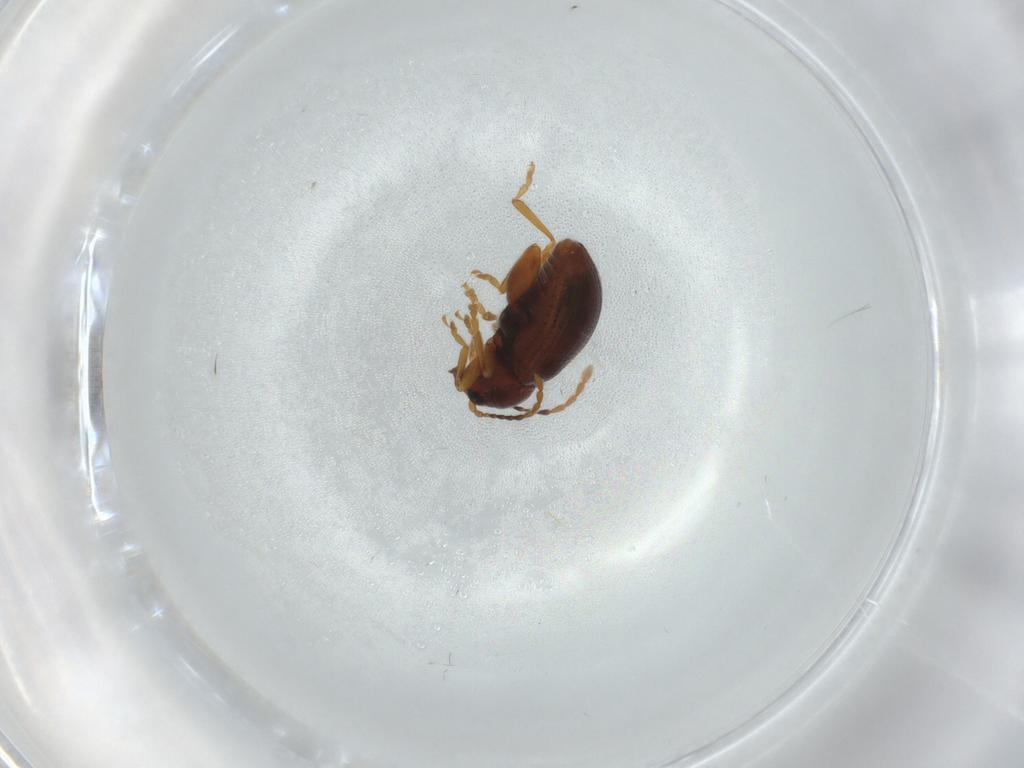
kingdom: Animalia
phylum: Arthropoda
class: Insecta
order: Coleoptera
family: Chrysomelidae
